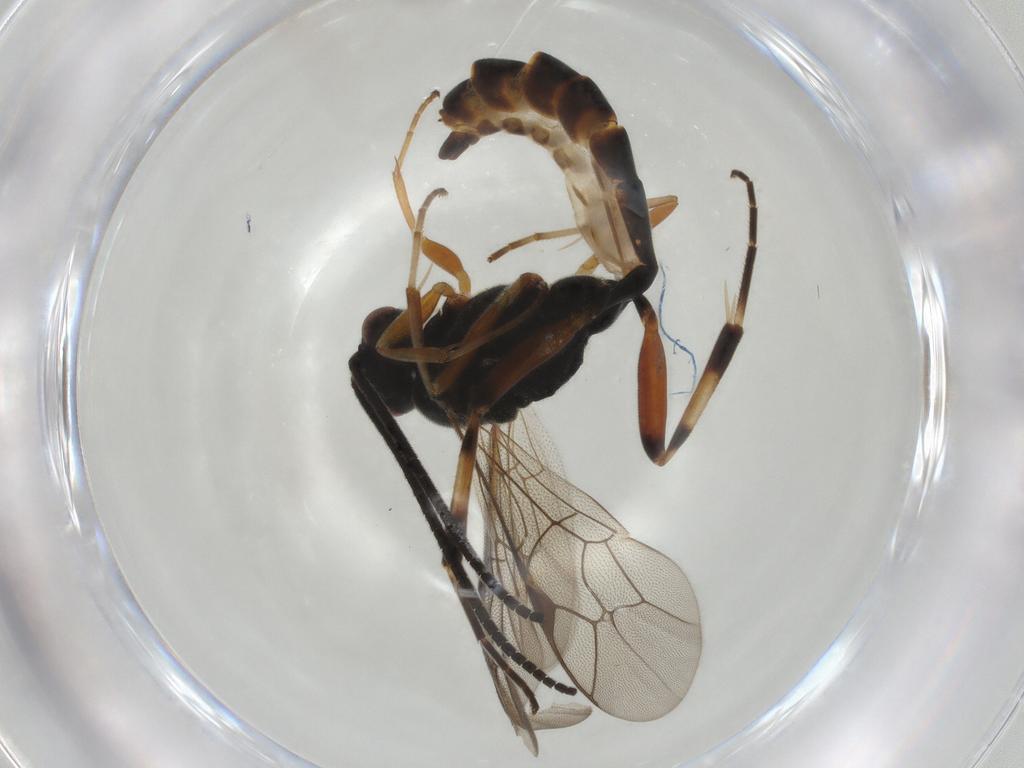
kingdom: Animalia
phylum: Arthropoda
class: Insecta
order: Hymenoptera
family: Ichneumonidae
